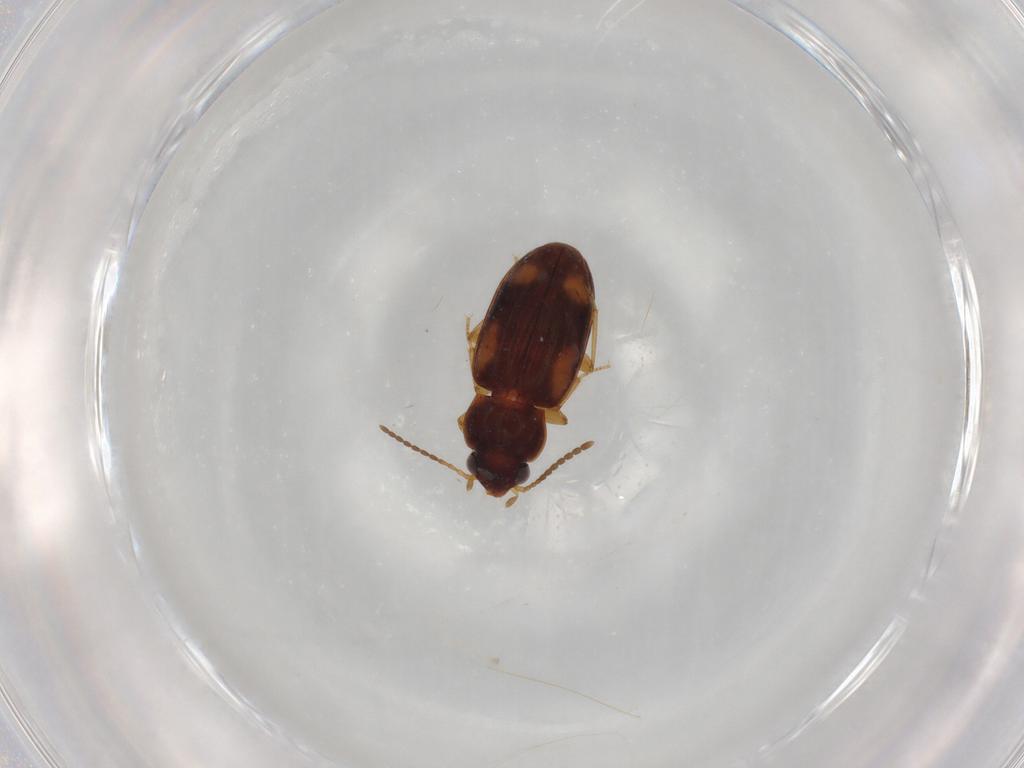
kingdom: Animalia
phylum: Arthropoda
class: Insecta
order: Coleoptera
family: Carabidae
